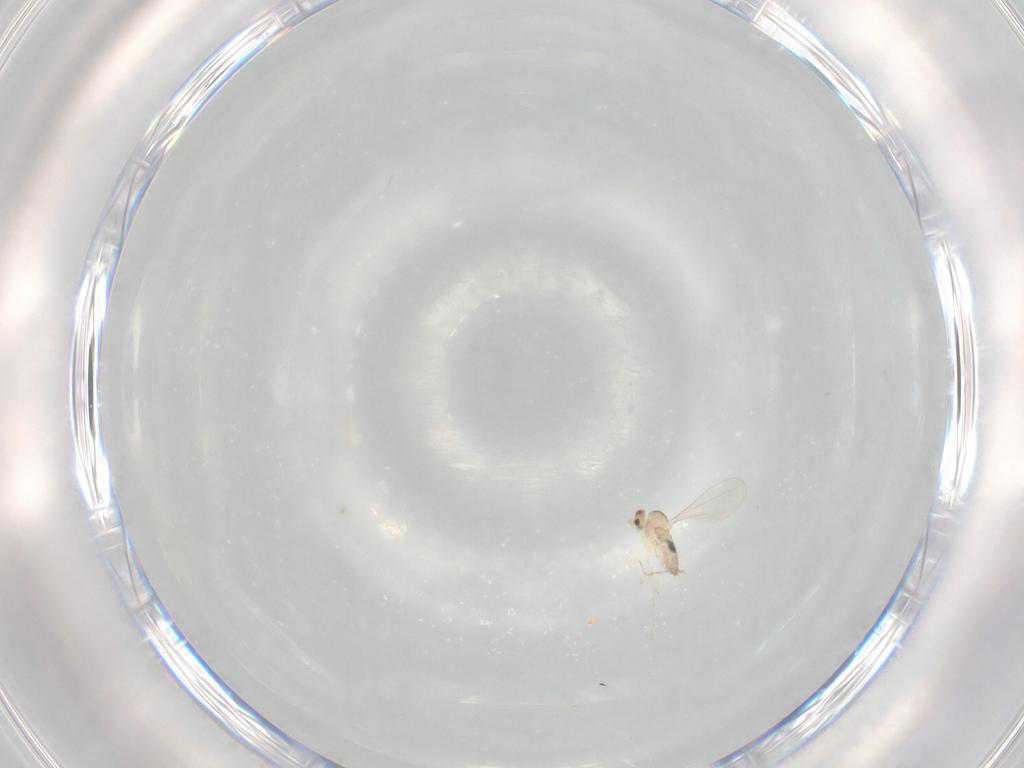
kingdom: Animalia
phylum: Arthropoda
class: Insecta
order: Diptera
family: Cecidomyiidae
